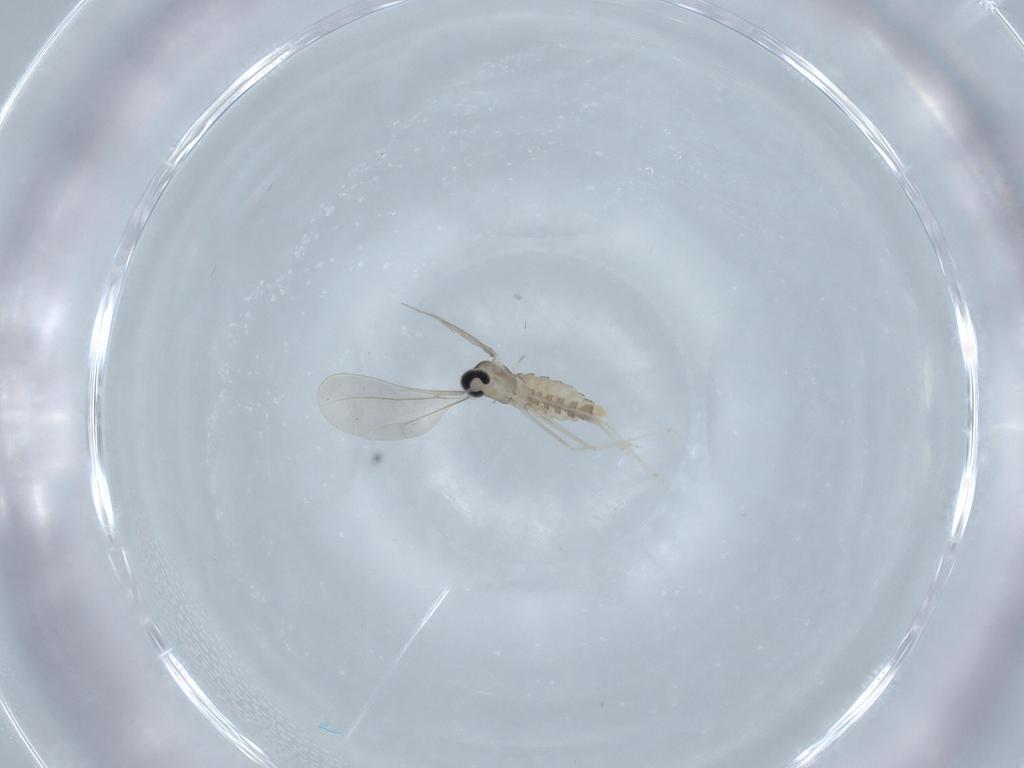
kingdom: Animalia
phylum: Arthropoda
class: Insecta
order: Diptera
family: Cecidomyiidae
